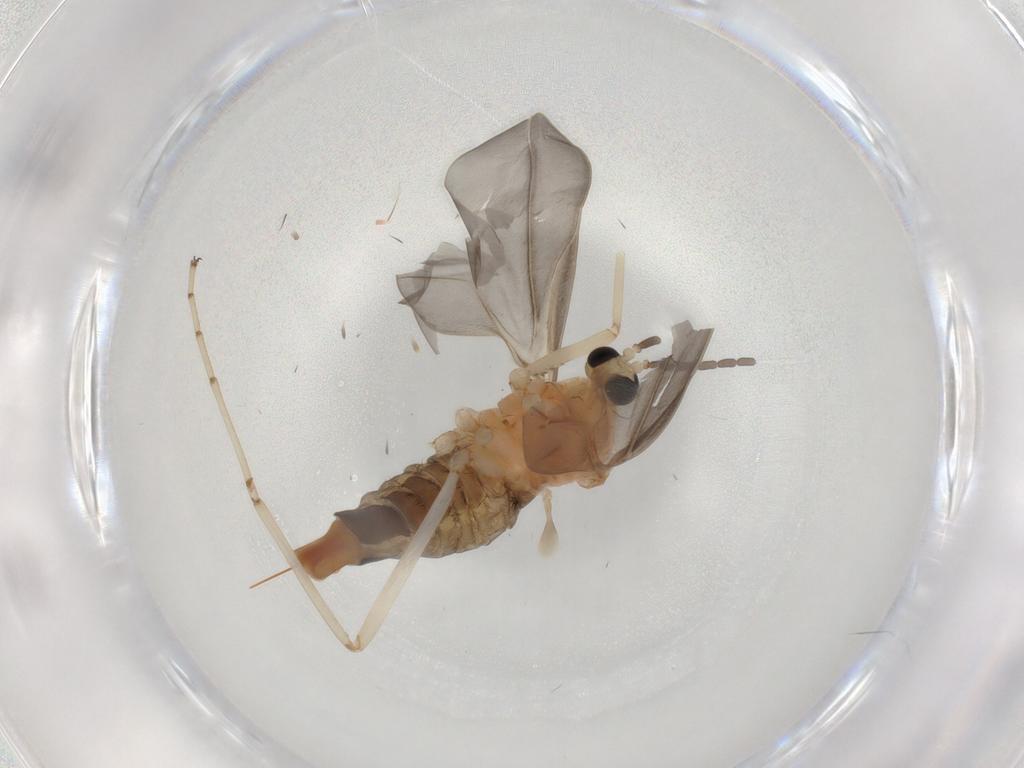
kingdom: Animalia
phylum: Arthropoda
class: Insecta
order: Diptera
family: Cecidomyiidae
